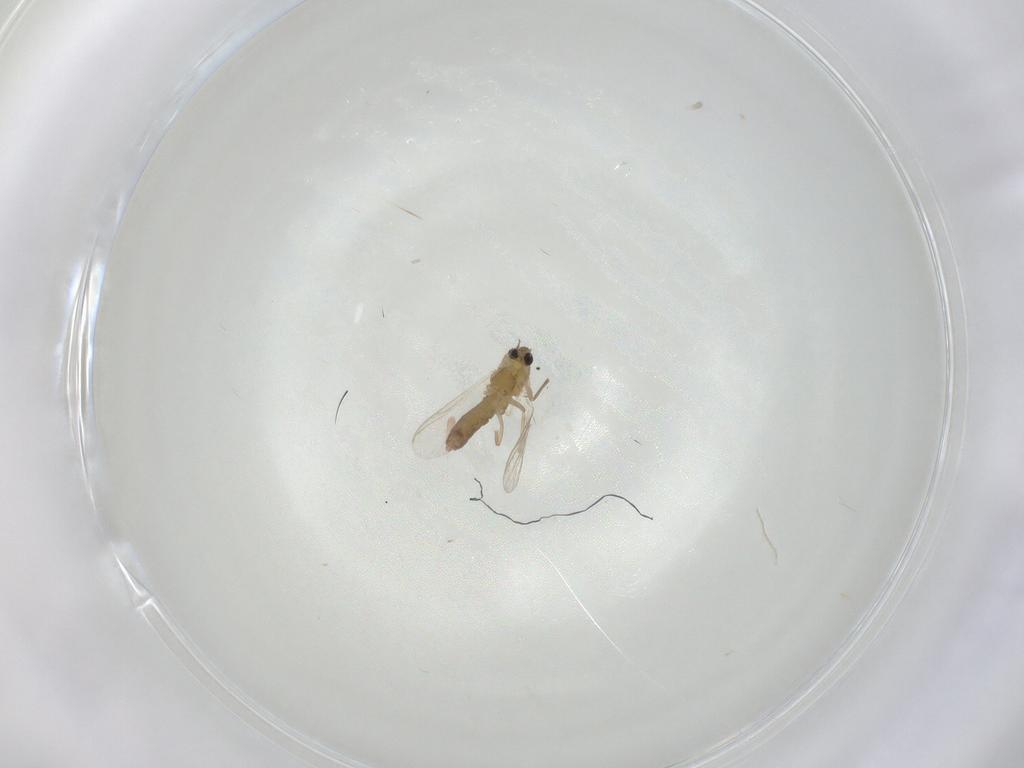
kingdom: Animalia
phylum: Arthropoda
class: Insecta
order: Diptera
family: Chironomidae
